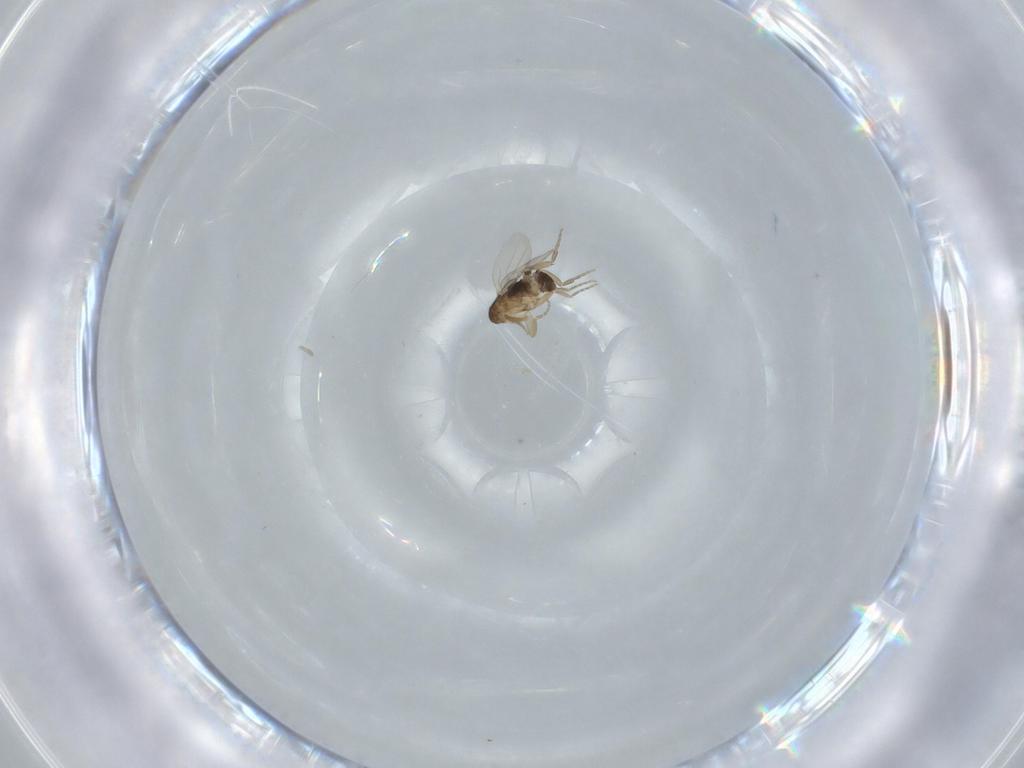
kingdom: Animalia
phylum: Arthropoda
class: Insecta
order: Diptera
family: Phoridae
